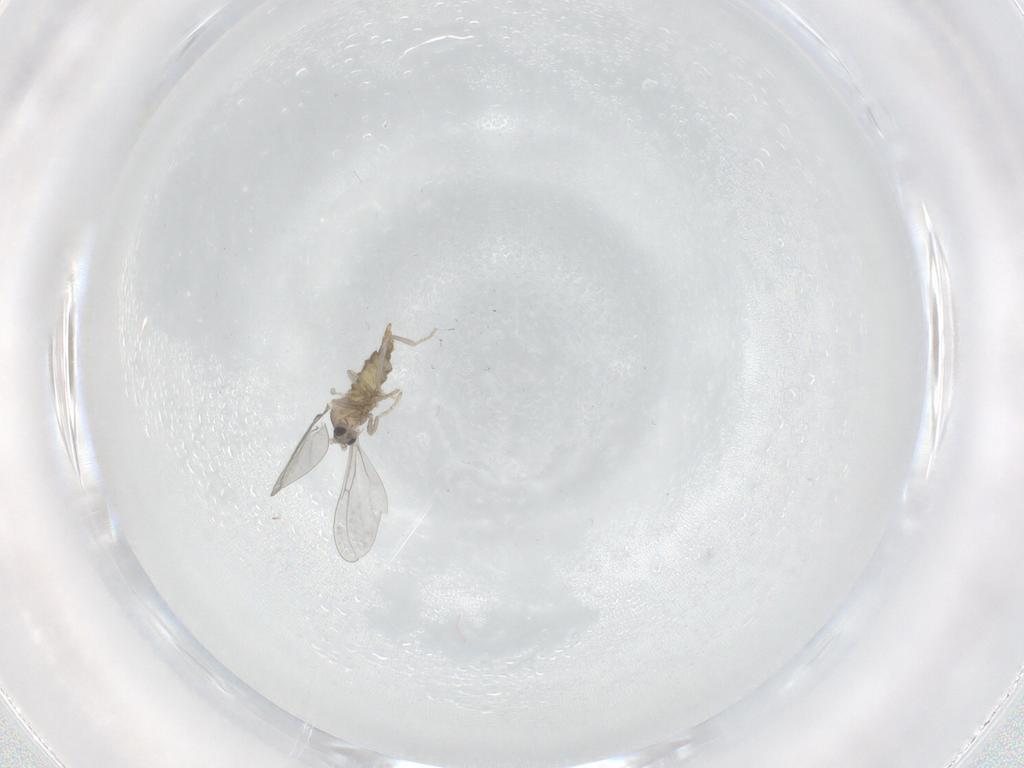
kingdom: Animalia
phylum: Arthropoda
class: Insecta
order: Diptera
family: Cecidomyiidae
